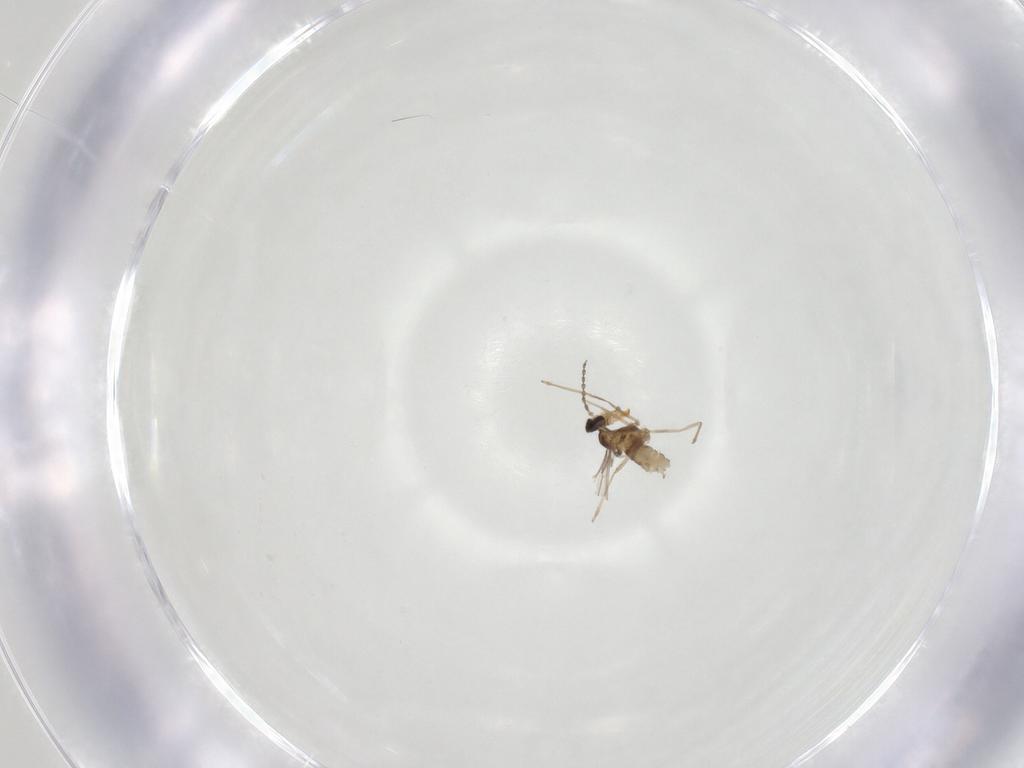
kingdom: Animalia
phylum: Arthropoda
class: Insecta
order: Diptera
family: Cecidomyiidae
